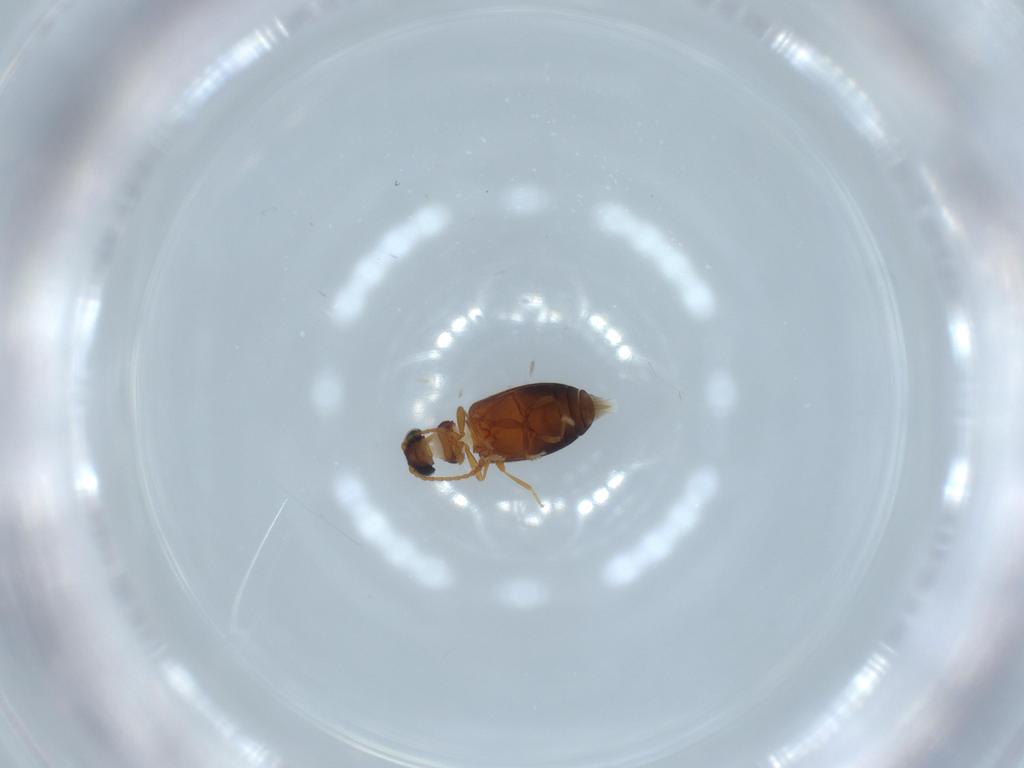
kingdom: Animalia
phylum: Arthropoda
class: Insecta
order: Coleoptera
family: Aderidae
